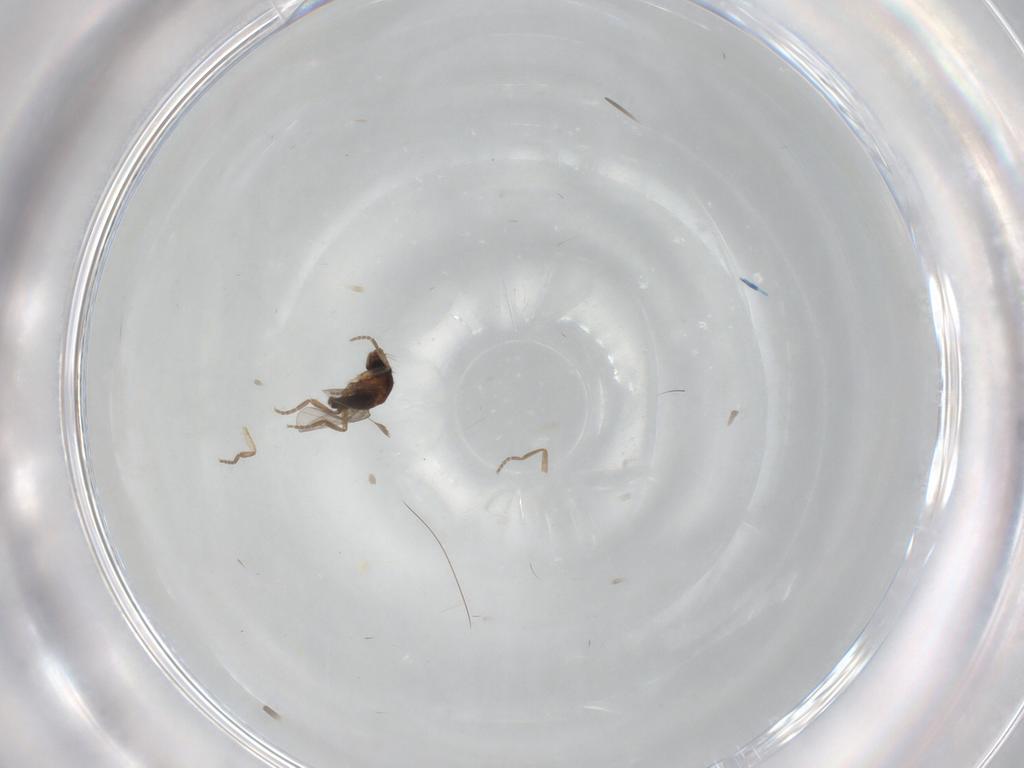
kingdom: Animalia
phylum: Arthropoda
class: Insecta
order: Diptera
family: Phoridae
